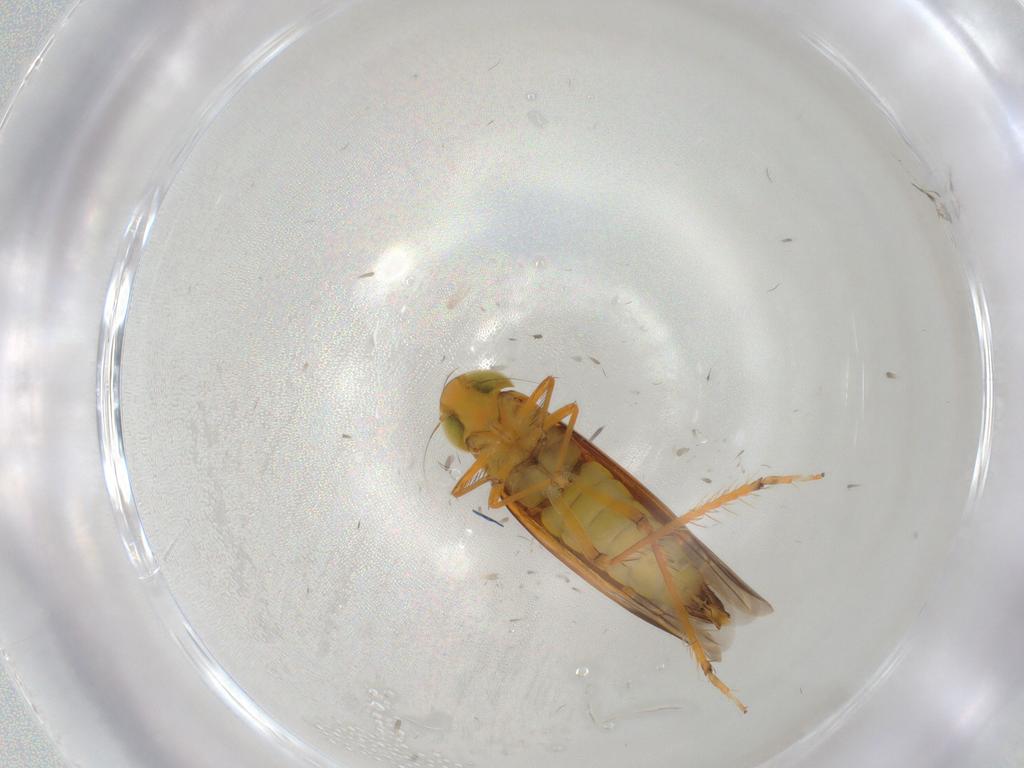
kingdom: Animalia
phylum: Arthropoda
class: Insecta
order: Hemiptera
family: Cicadellidae
